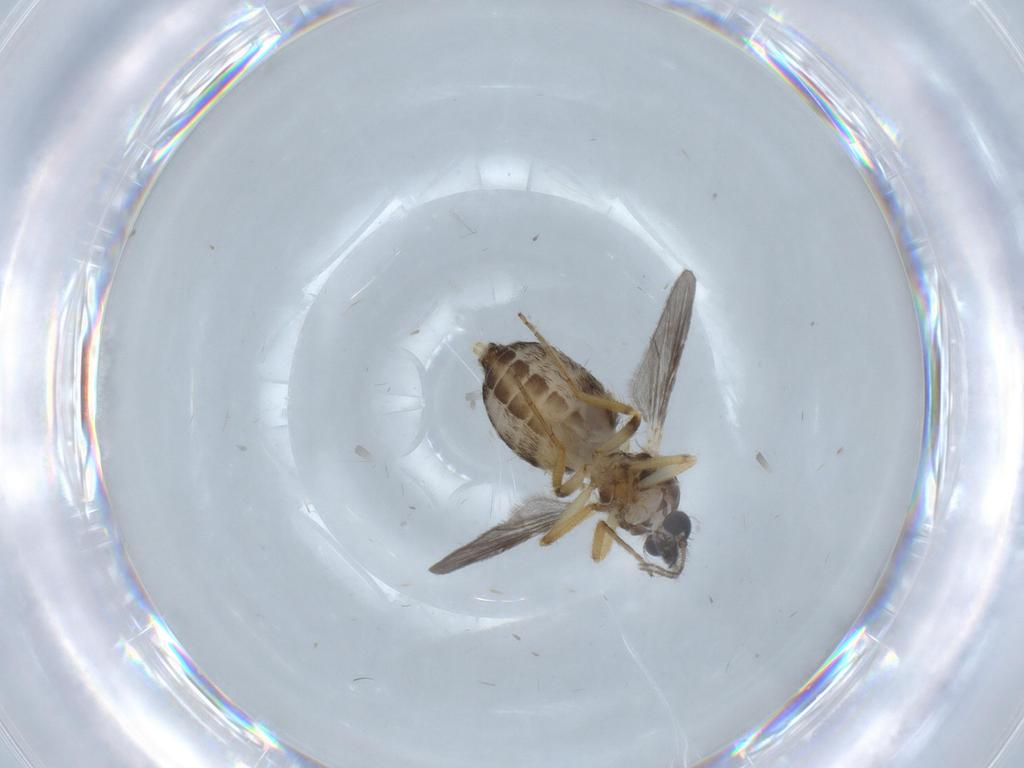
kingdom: Animalia
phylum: Arthropoda
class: Insecta
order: Diptera
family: Ceratopogonidae
